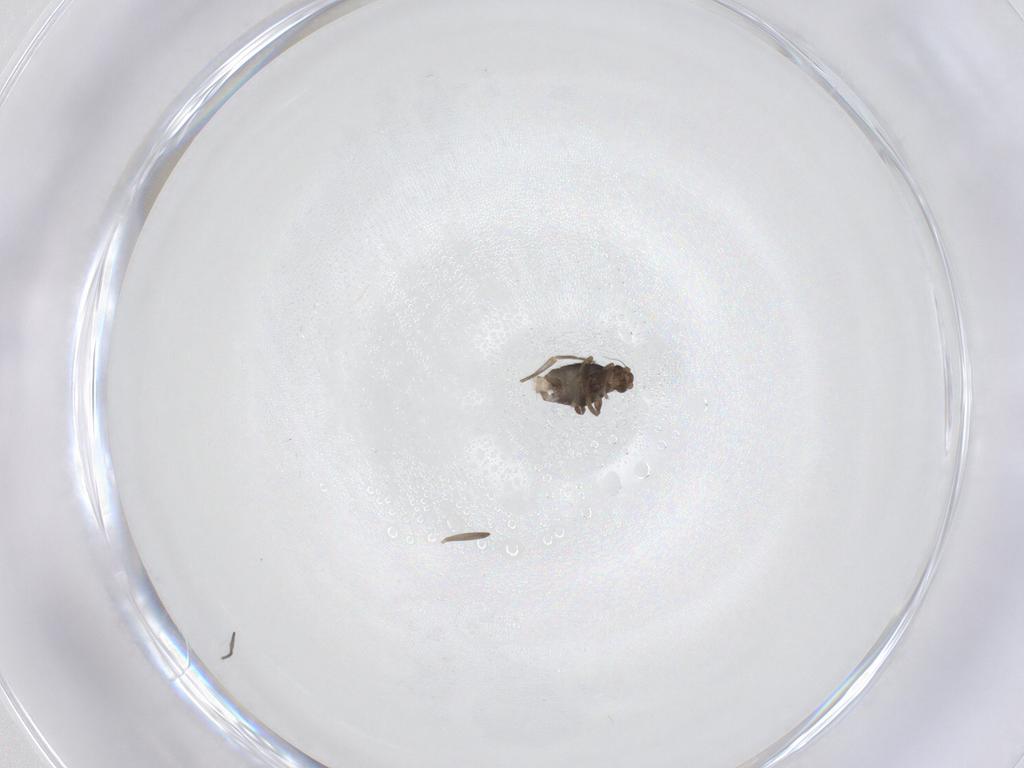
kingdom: Animalia
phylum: Arthropoda
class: Insecta
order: Diptera
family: Phoridae
